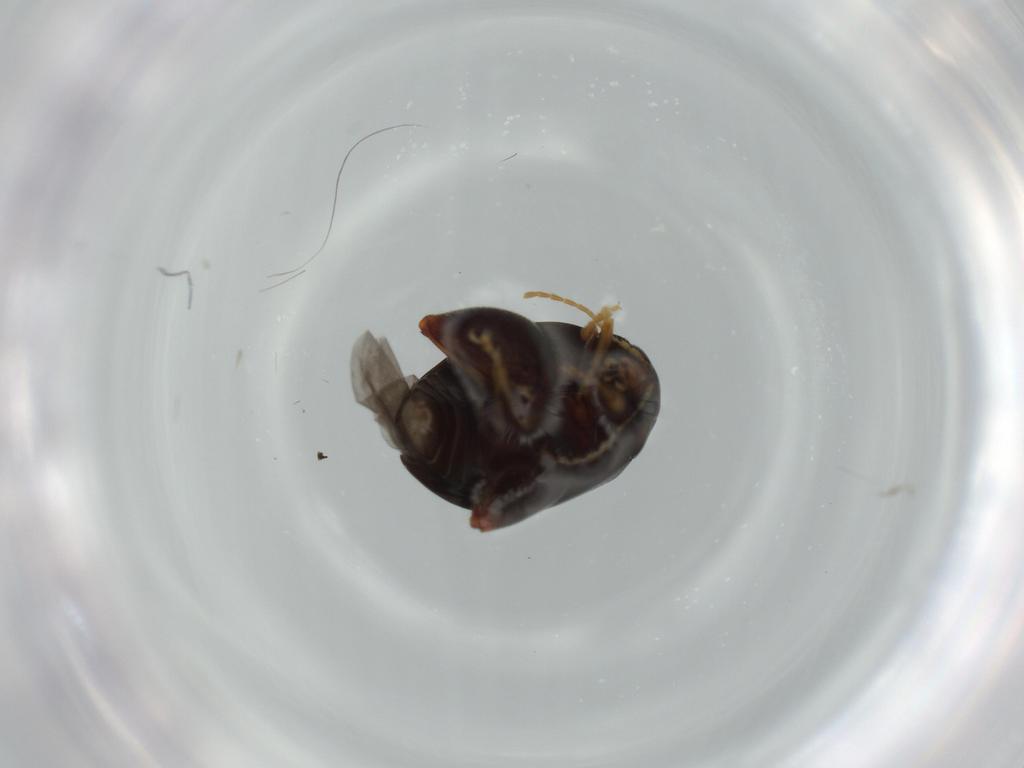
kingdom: Animalia
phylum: Arthropoda
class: Insecta
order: Coleoptera
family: Chrysomelidae
